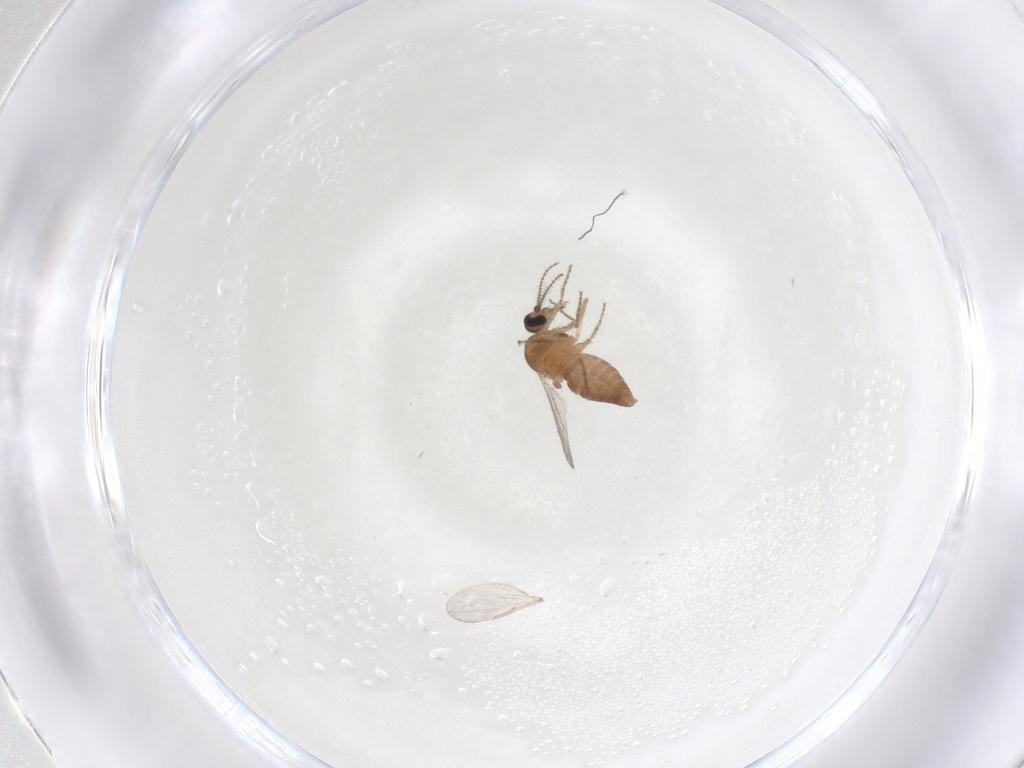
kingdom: Animalia
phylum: Arthropoda
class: Insecta
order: Diptera
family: Ceratopogonidae
